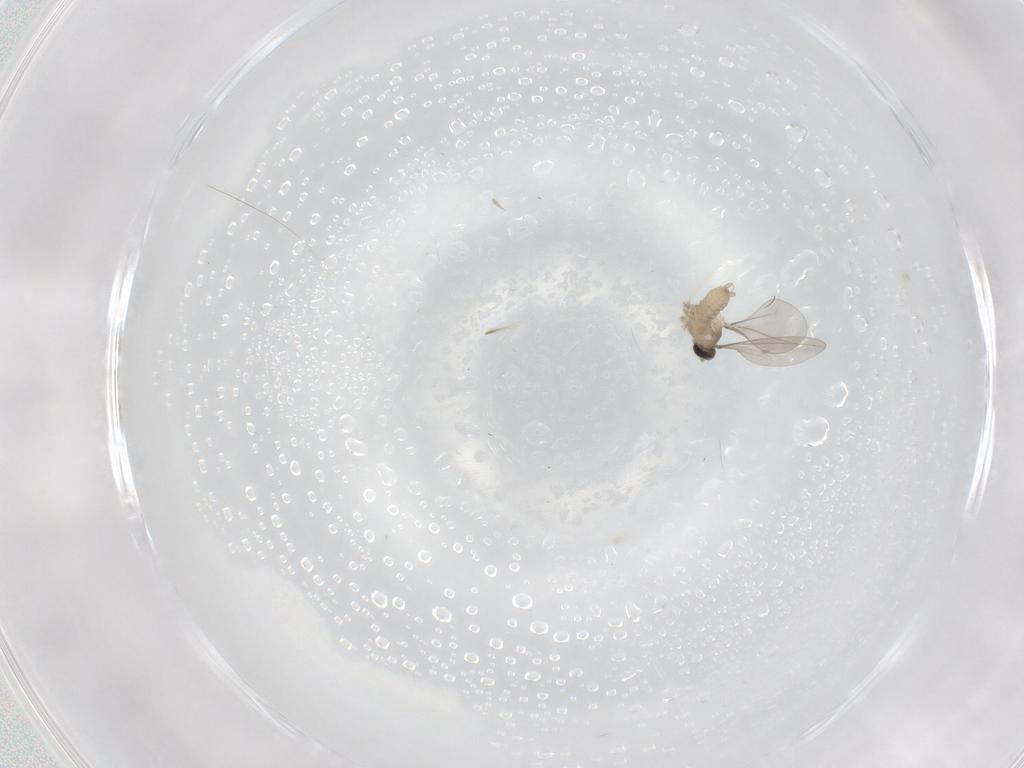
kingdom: Animalia
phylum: Arthropoda
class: Insecta
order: Diptera
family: Cecidomyiidae
